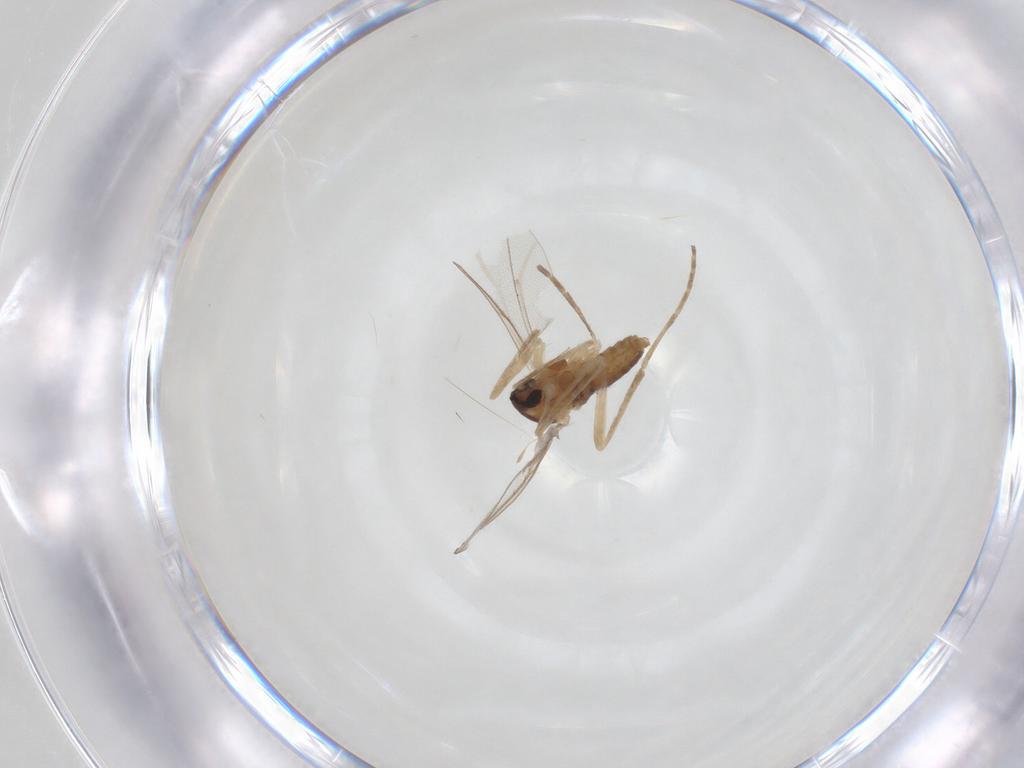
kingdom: Animalia
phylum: Arthropoda
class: Insecta
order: Diptera
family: Cecidomyiidae
